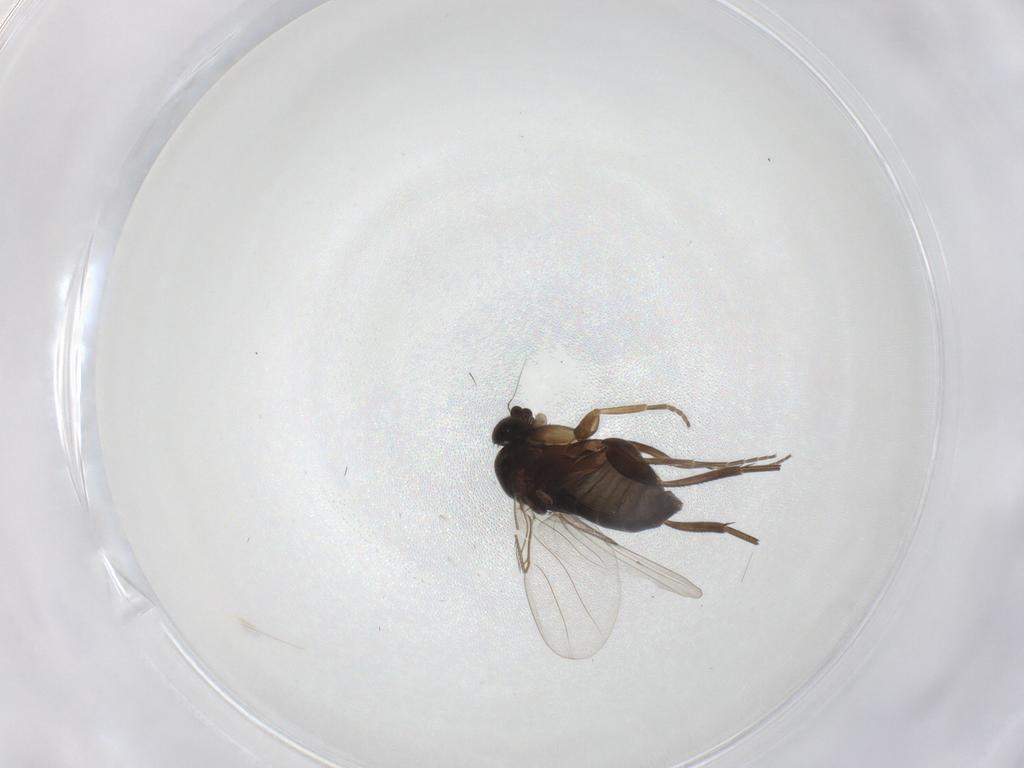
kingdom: Animalia
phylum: Arthropoda
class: Insecta
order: Diptera
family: Phoridae
